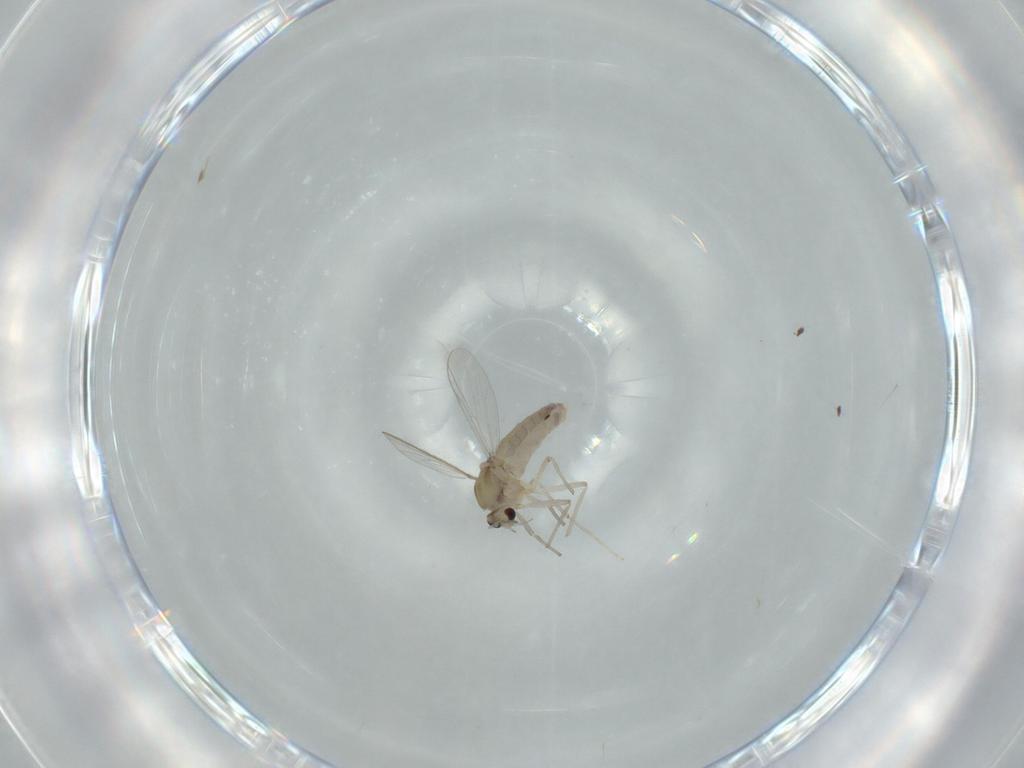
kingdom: Animalia
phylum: Arthropoda
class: Insecta
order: Diptera
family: Chironomidae
